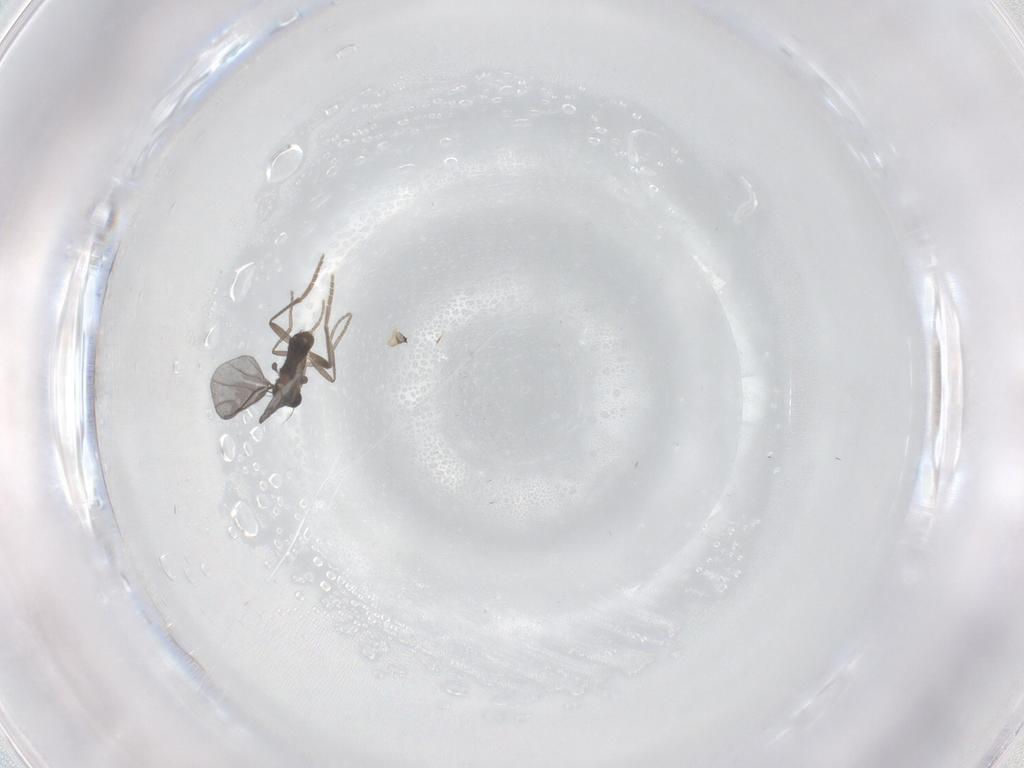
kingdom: Animalia
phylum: Arthropoda
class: Insecta
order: Diptera
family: Phoridae
